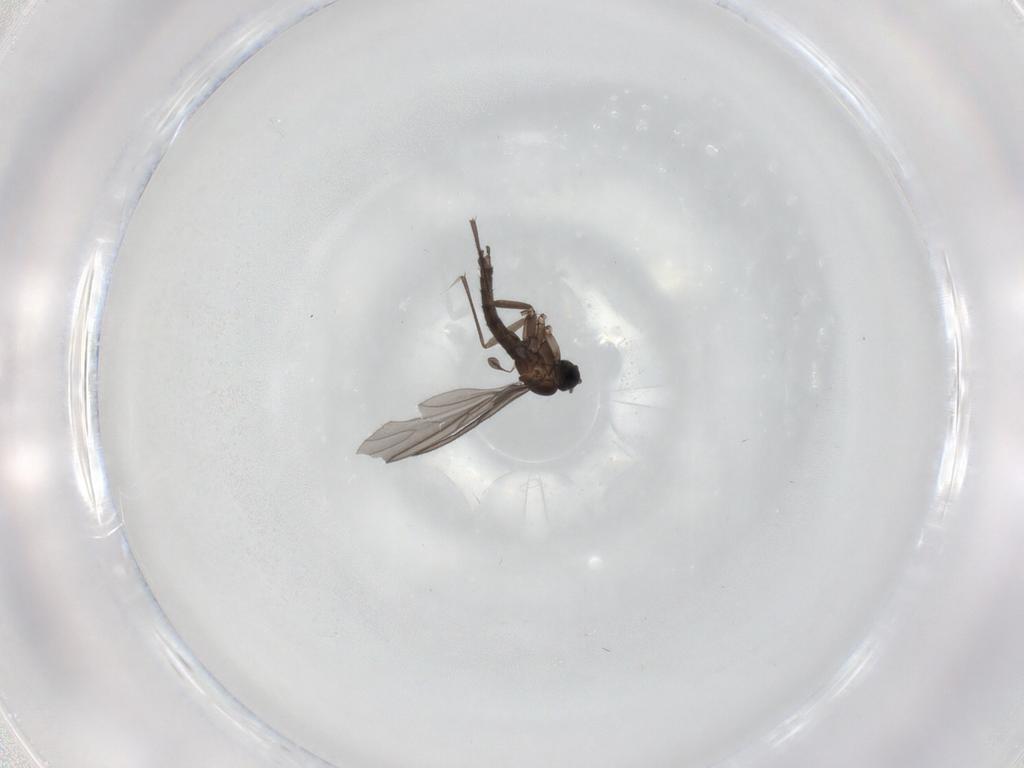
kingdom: Animalia
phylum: Arthropoda
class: Insecta
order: Diptera
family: Sciaridae
